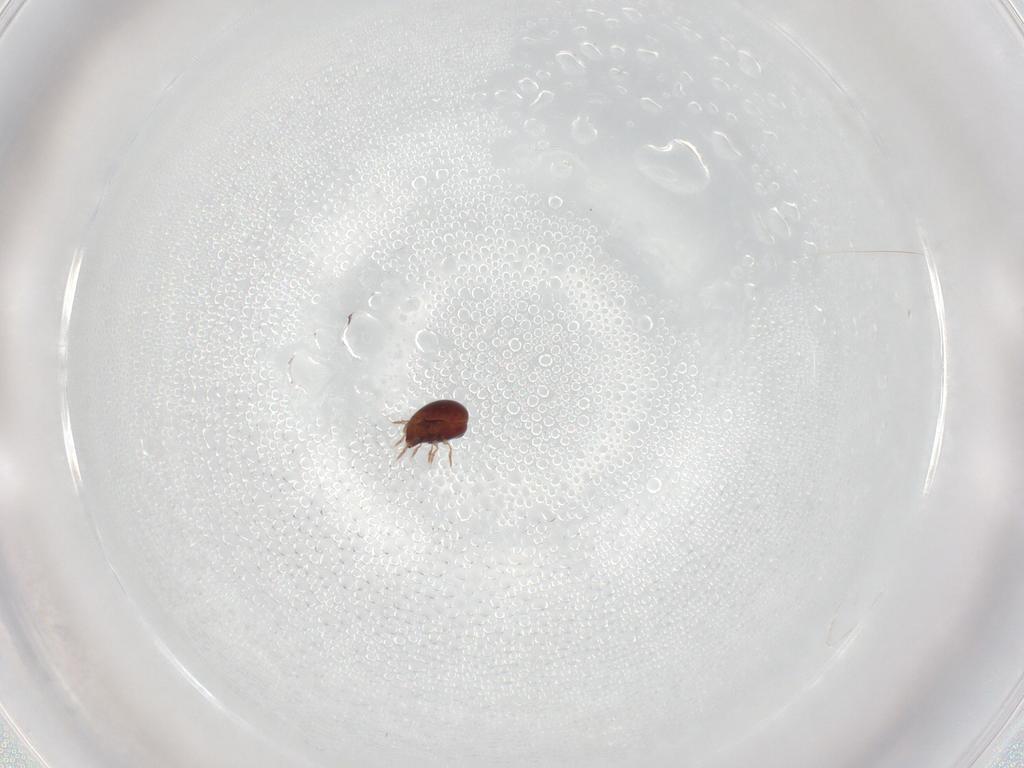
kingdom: Animalia
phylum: Arthropoda
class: Arachnida
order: Sarcoptiformes
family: Galumnidae
